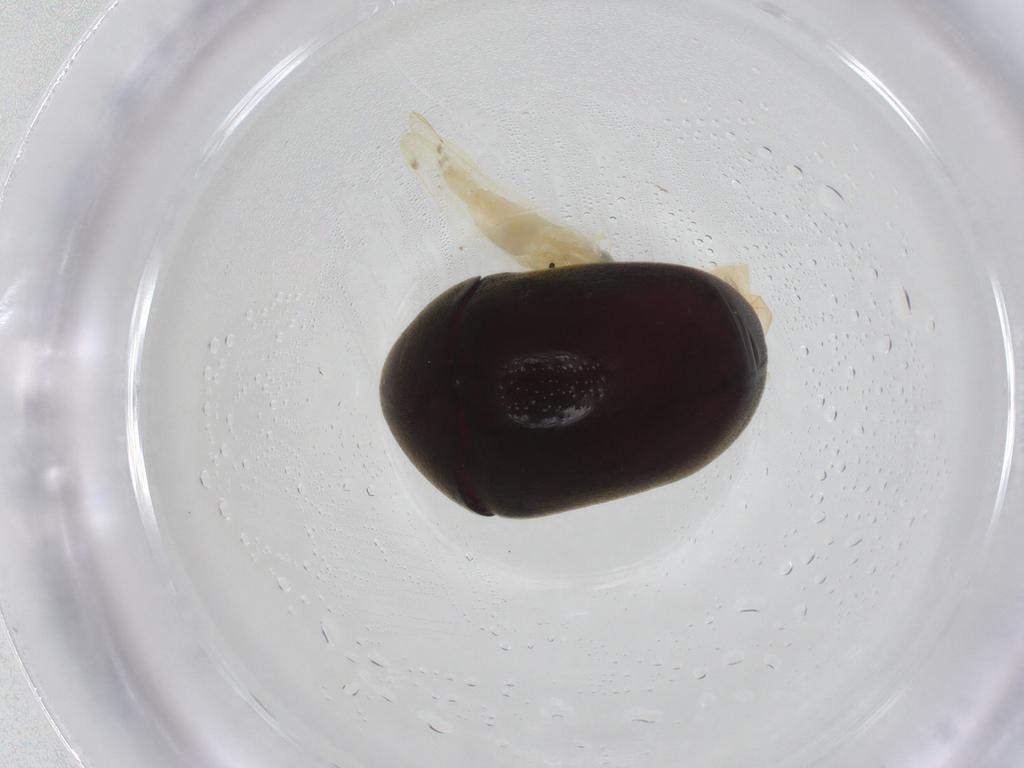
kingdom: Animalia
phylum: Arthropoda
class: Insecta
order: Coleoptera
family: Ptinidae
